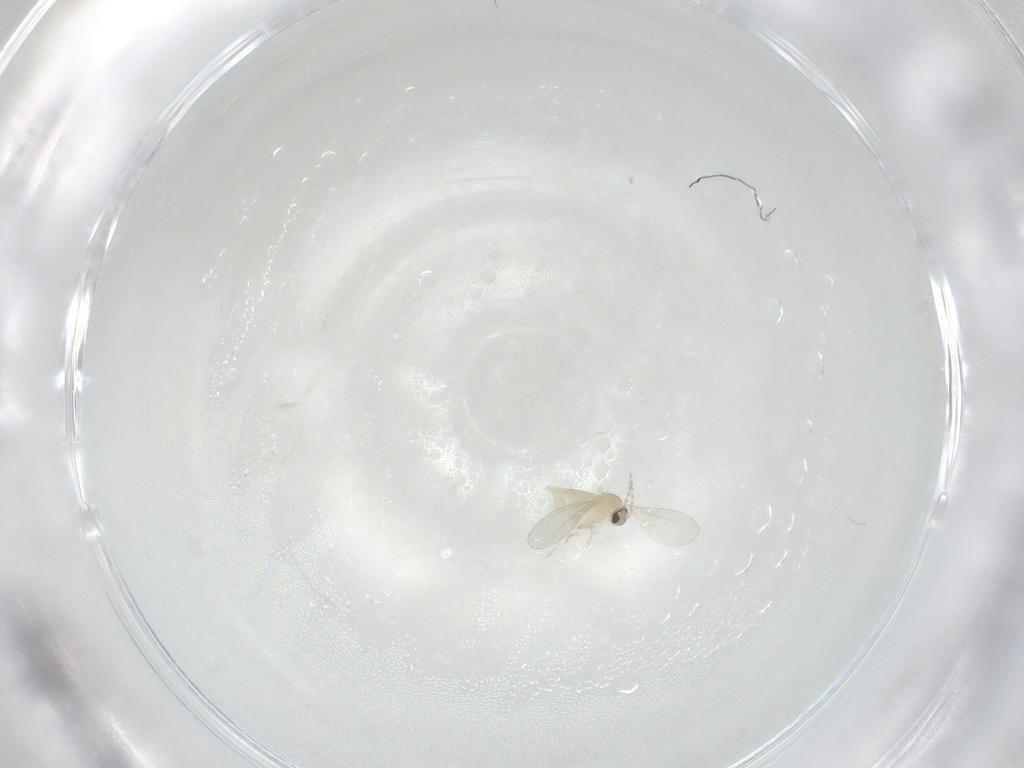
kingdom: Animalia
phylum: Arthropoda
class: Insecta
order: Diptera
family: Cecidomyiidae
